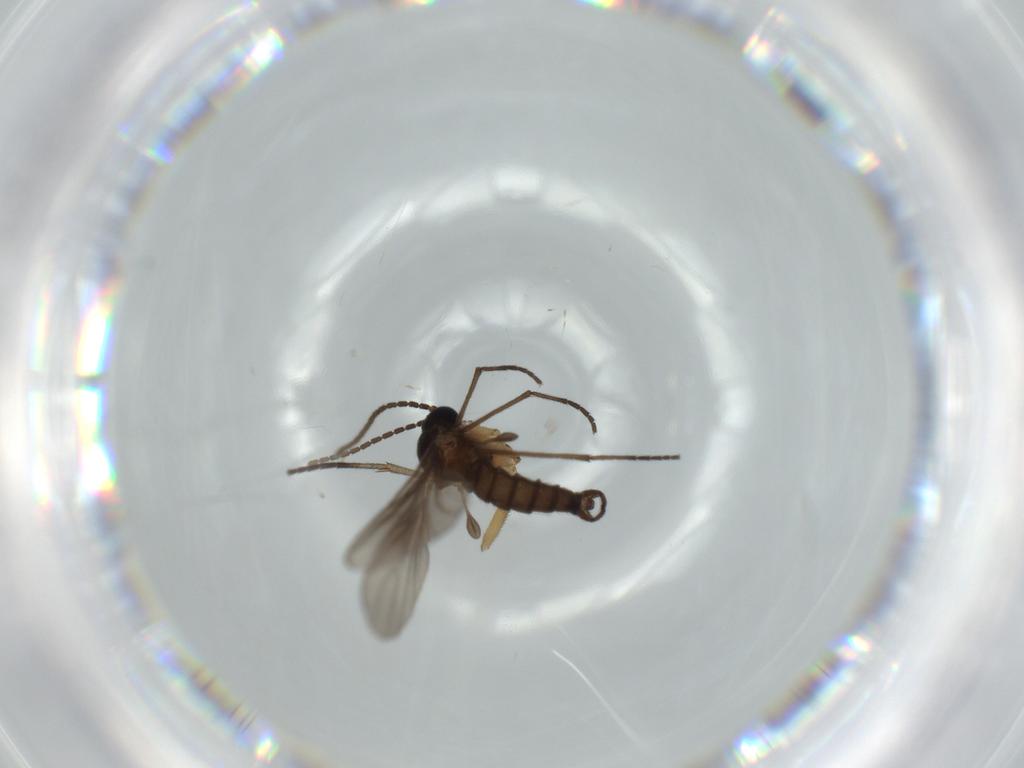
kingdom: Animalia
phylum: Arthropoda
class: Insecta
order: Diptera
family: Sciaridae
